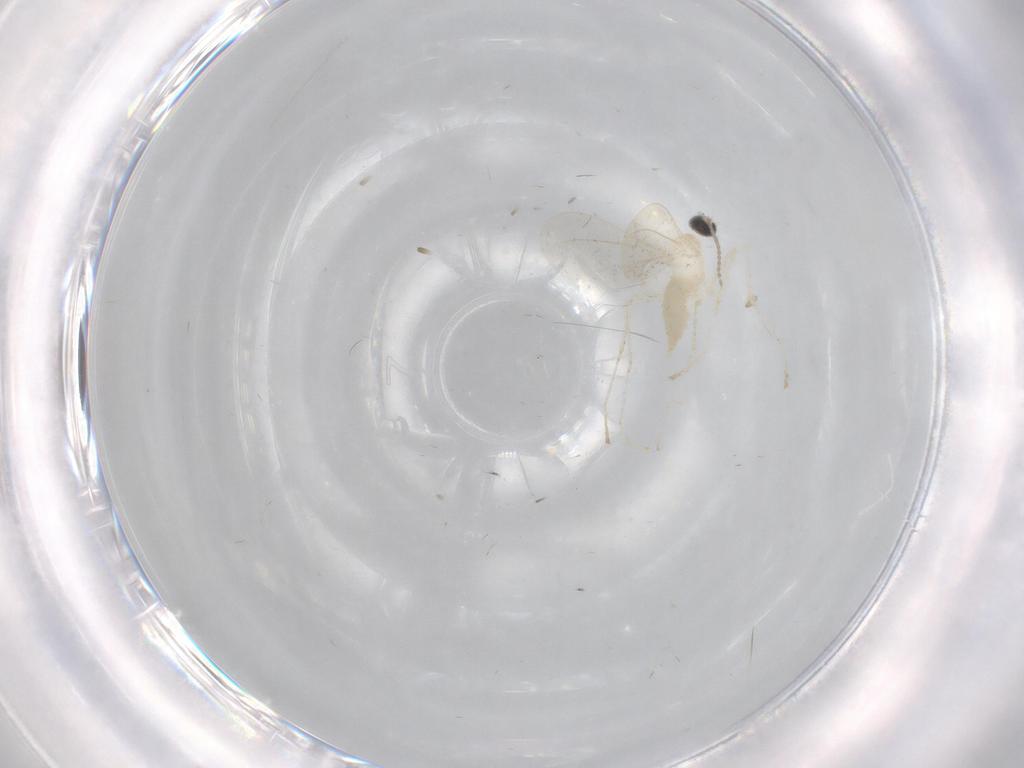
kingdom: Animalia
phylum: Arthropoda
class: Insecta
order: Diptera
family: Cecidomyiidae
